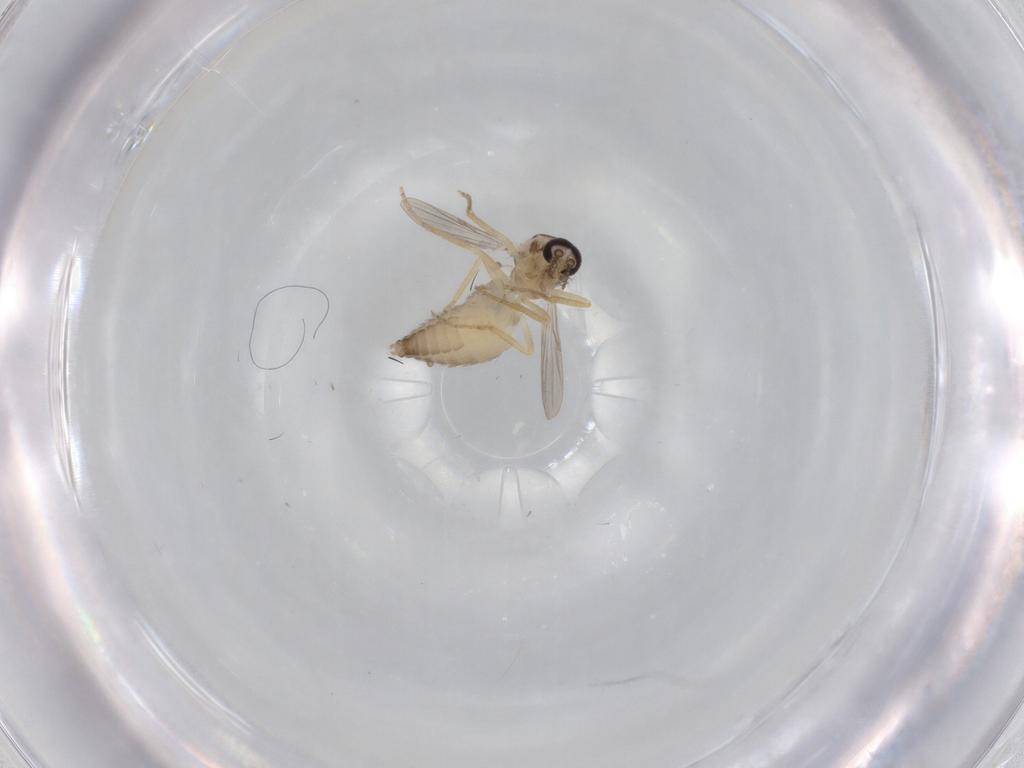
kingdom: Animalia
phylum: Arthropoda
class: Insecta
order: Diptera
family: Ceratopogonidae
